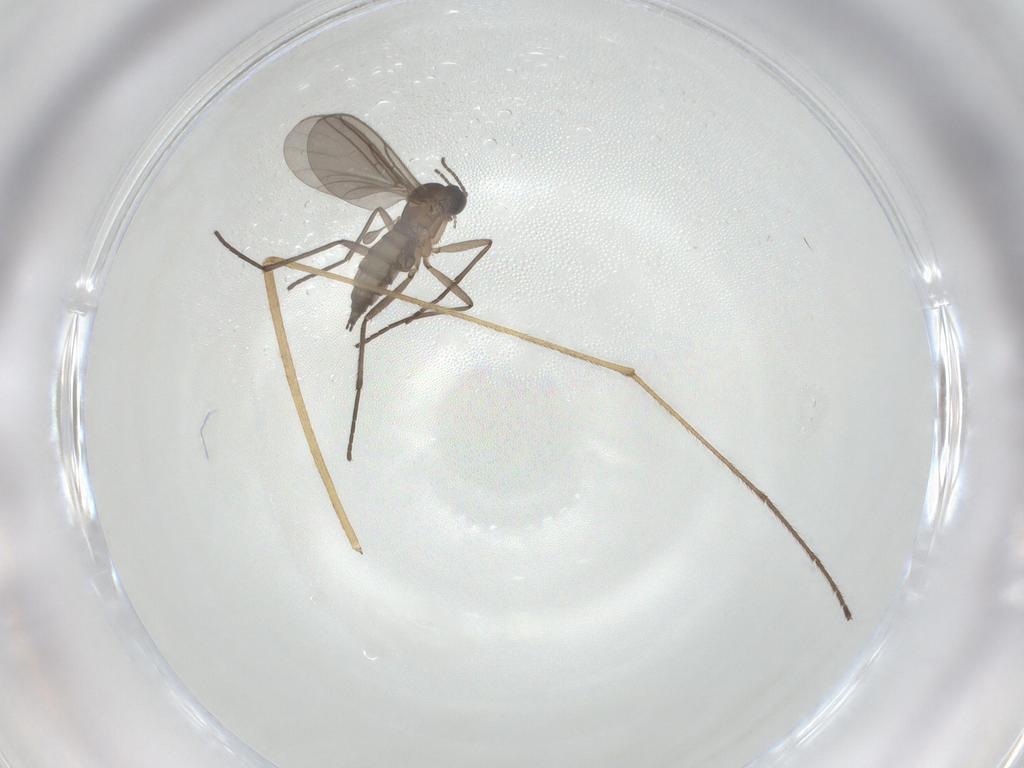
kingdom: Animalia
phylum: Arthropoda
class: Insecta
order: Diptera
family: Limoniidae
